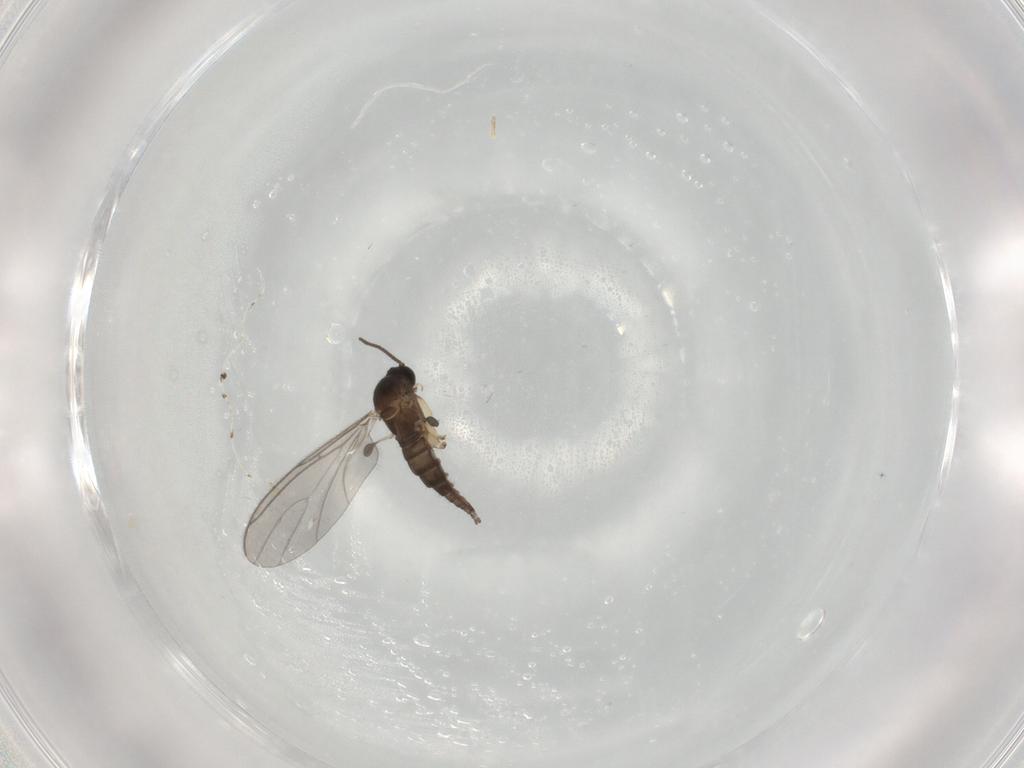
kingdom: Animalia
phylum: Arthropoda
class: Insecta
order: Diptera
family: Sciaridae
